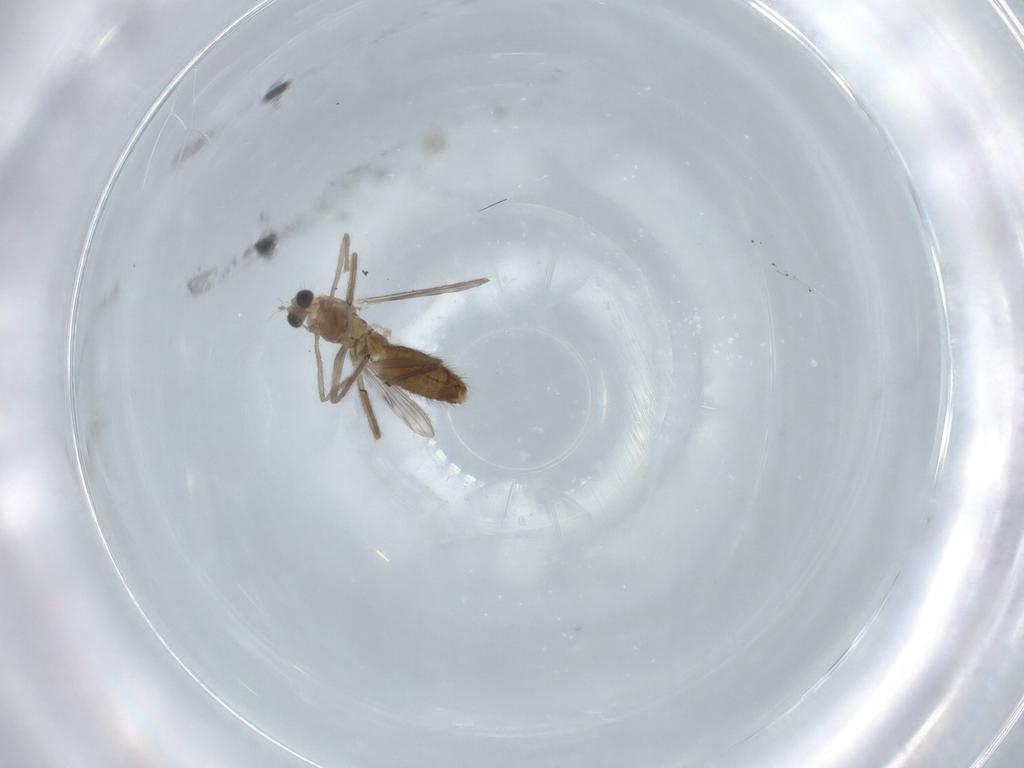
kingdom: Animalia
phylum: Arthropoda
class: Insecta
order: Diptera
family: Chironomidae
